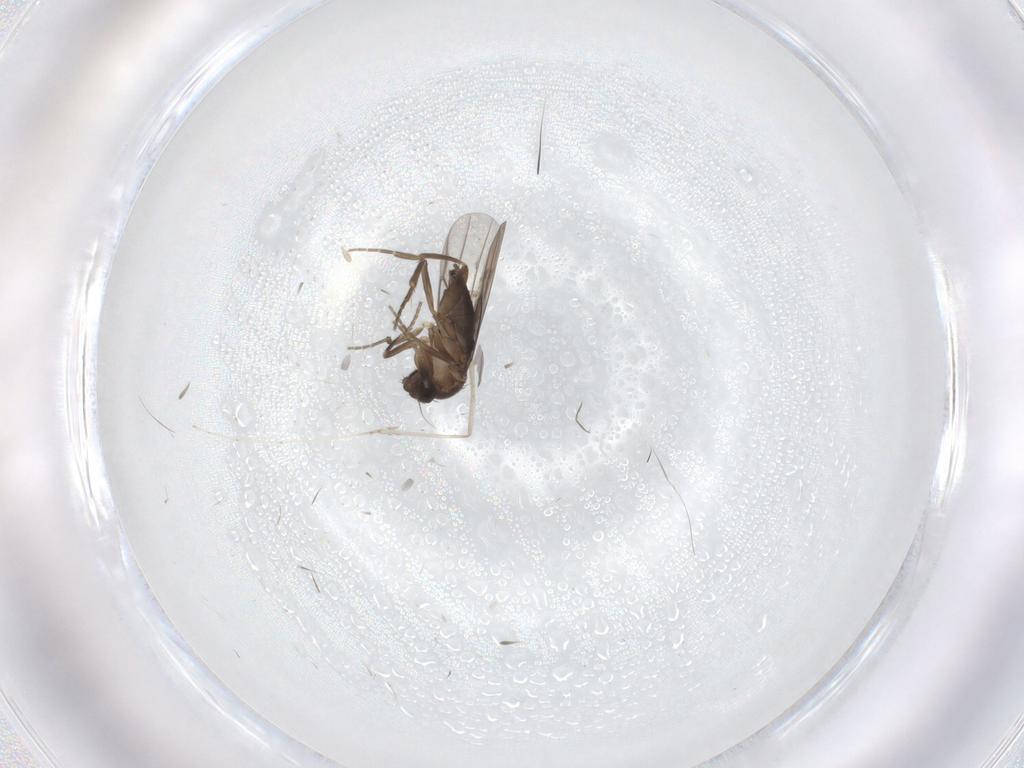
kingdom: Animalia
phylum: Arthropoda
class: Insecta
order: Diptera
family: Cecidomyiidae
